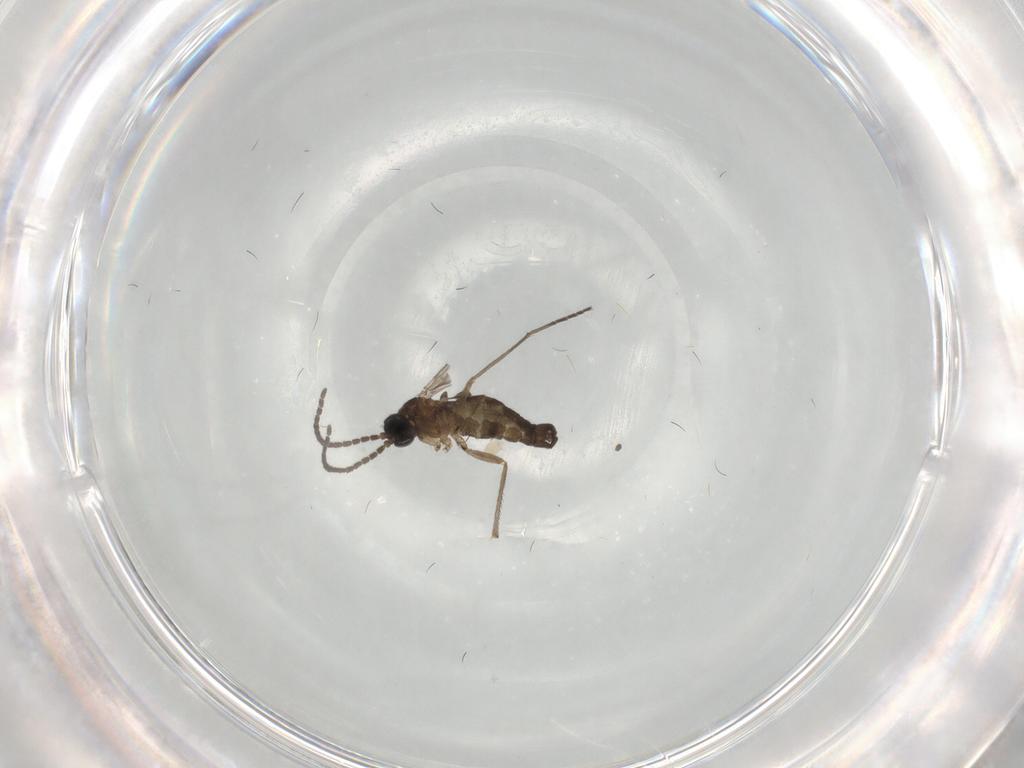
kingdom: Animalia
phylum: Arthropoda
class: Insecta
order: Diptera
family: Sciaridae
